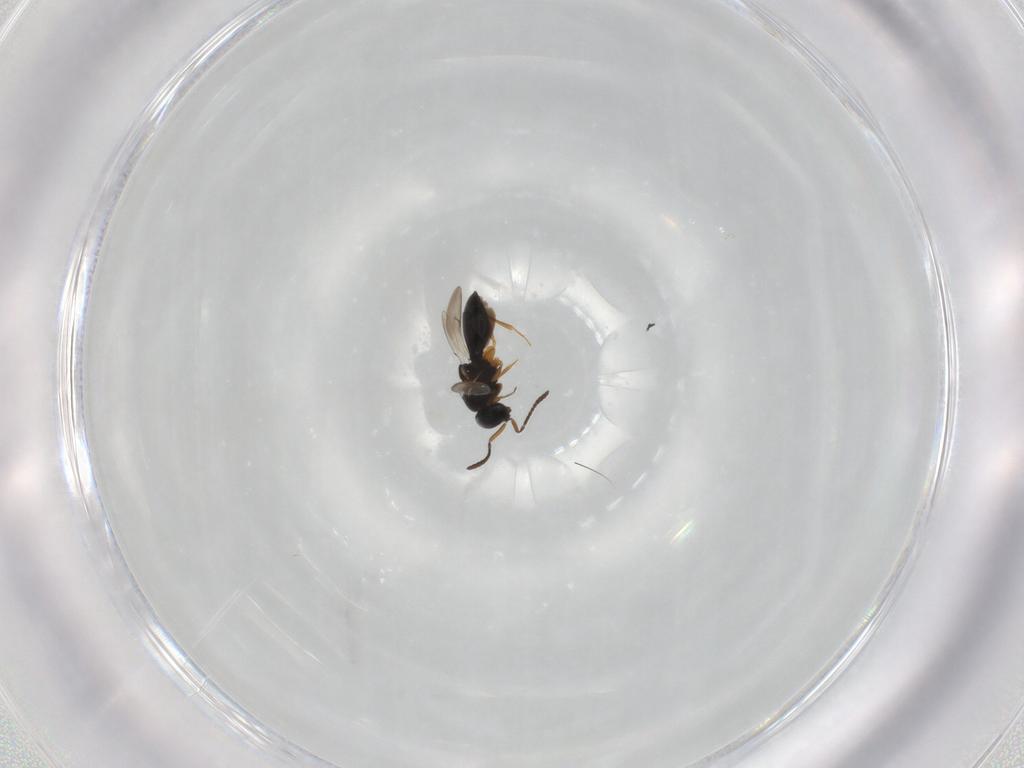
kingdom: Animalia
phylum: Arthropoda
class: Insecta
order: Hymenoptera
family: Scelionidae
